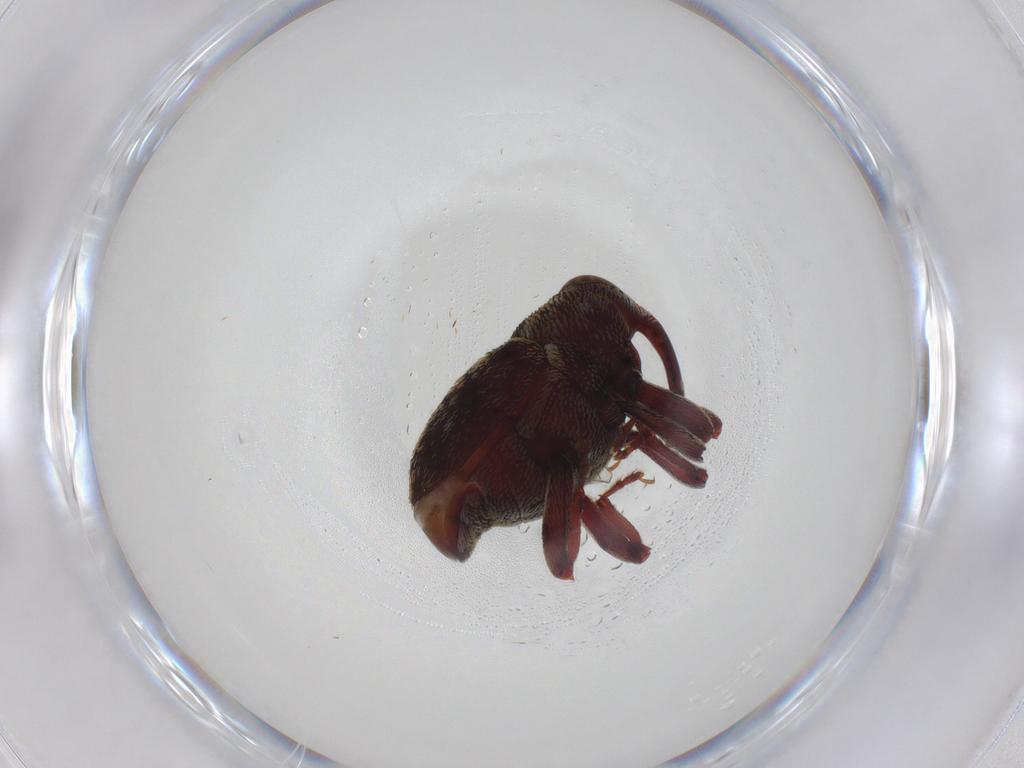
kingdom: Animalia
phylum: Arthropoda
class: Insecta
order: Coleoptera
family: Curculionidae
